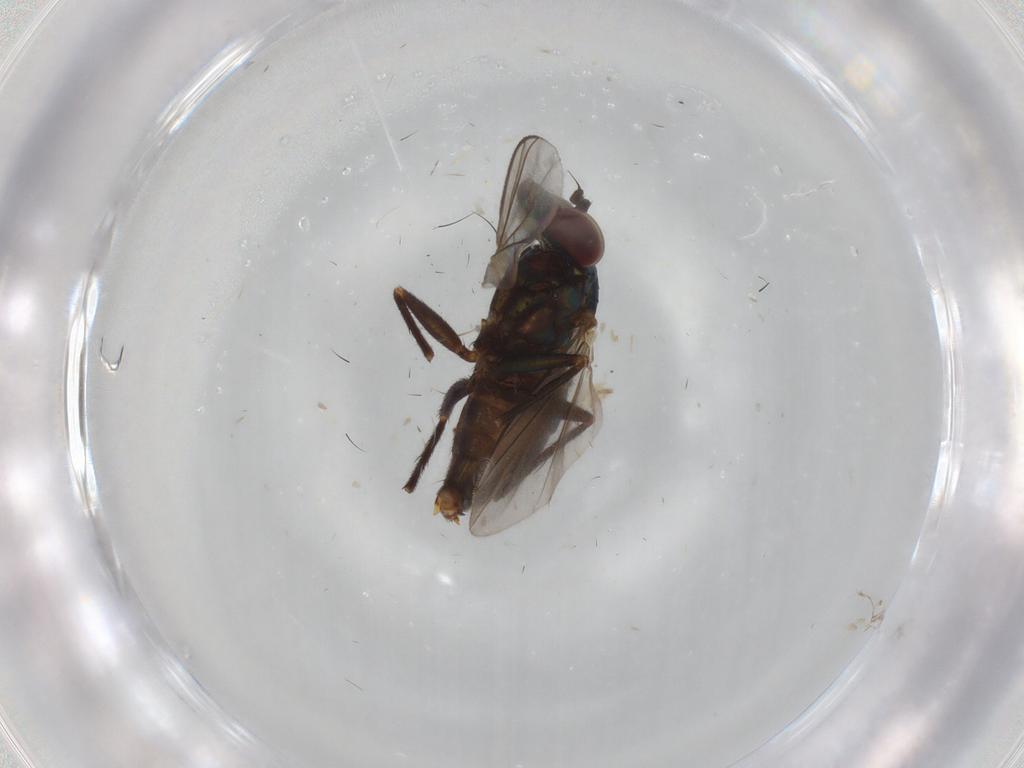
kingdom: Animalia
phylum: Arthropoda
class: Insecta
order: Diptera
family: Dolichopodidae
